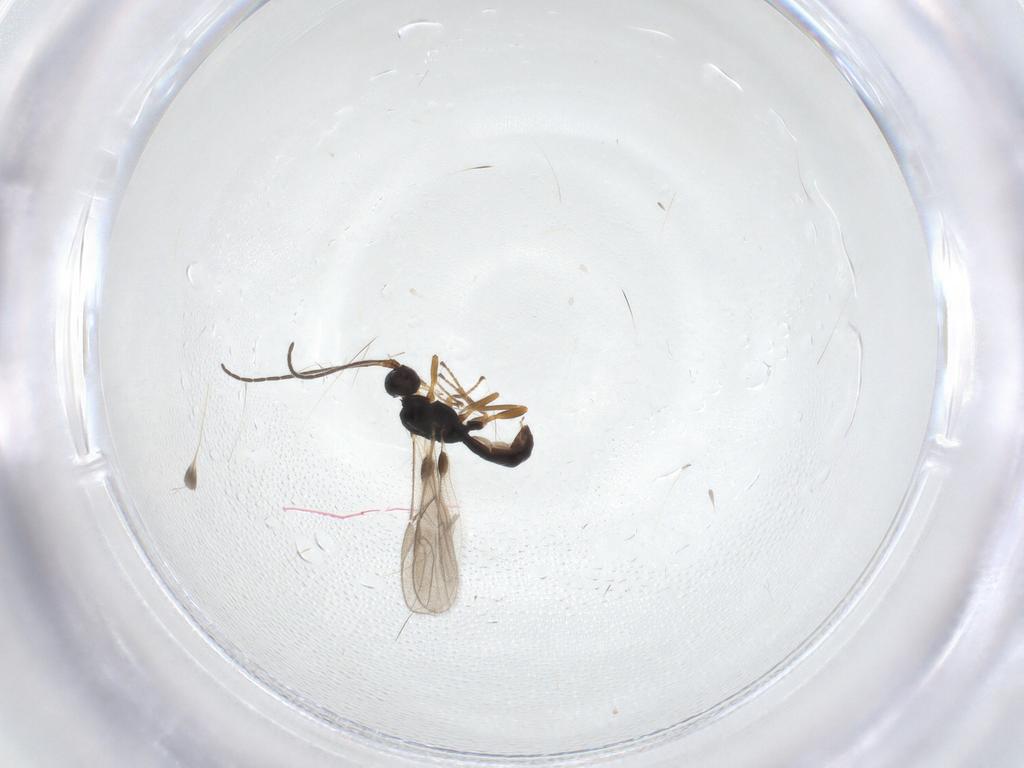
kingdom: Animalia
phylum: Arthropoda
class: Insecta
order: Hymenoptera
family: Braconidae
